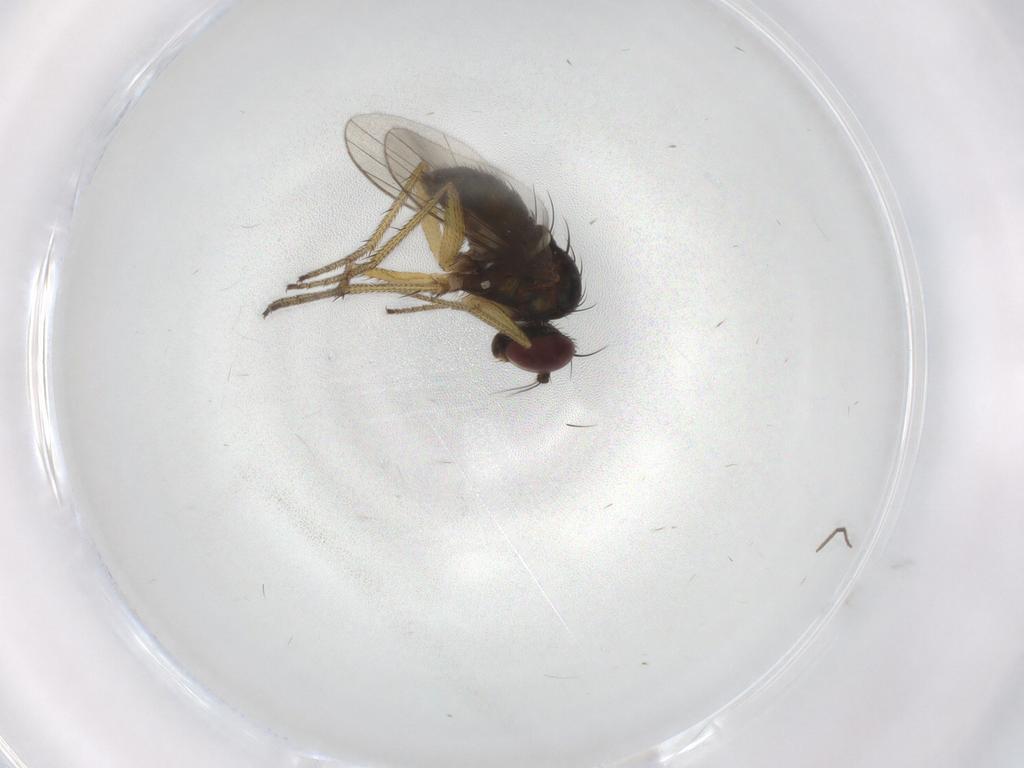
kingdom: Animalia
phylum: Arthropoda
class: Insecta
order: Diptera
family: Dolichopodidae
